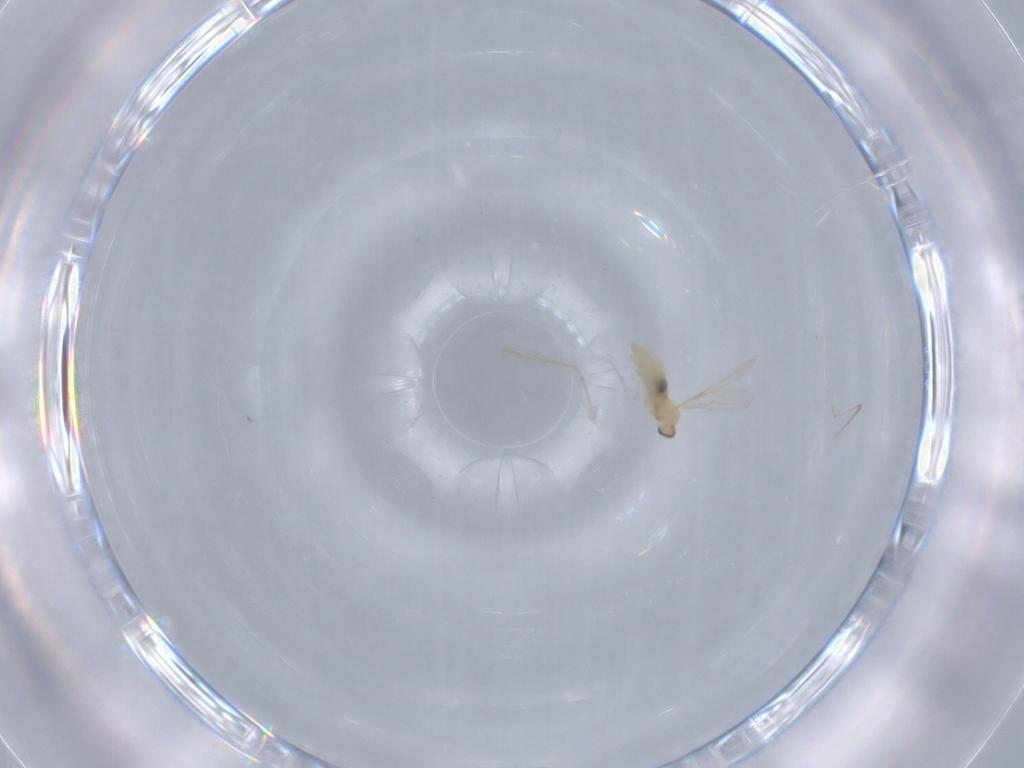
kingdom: Animalia
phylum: Arthropoda
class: Insecta
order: Diptera
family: Cecidomyiidae
